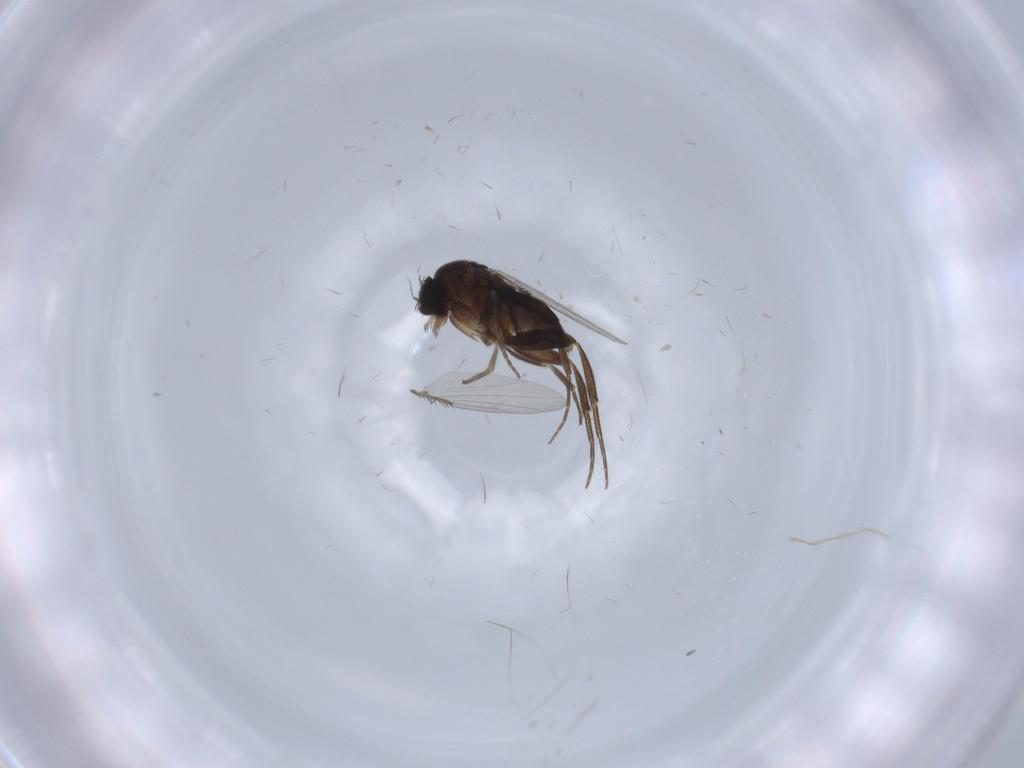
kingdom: Animalia
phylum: Arthropoda
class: Insecta
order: Diptera
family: Phoridae
